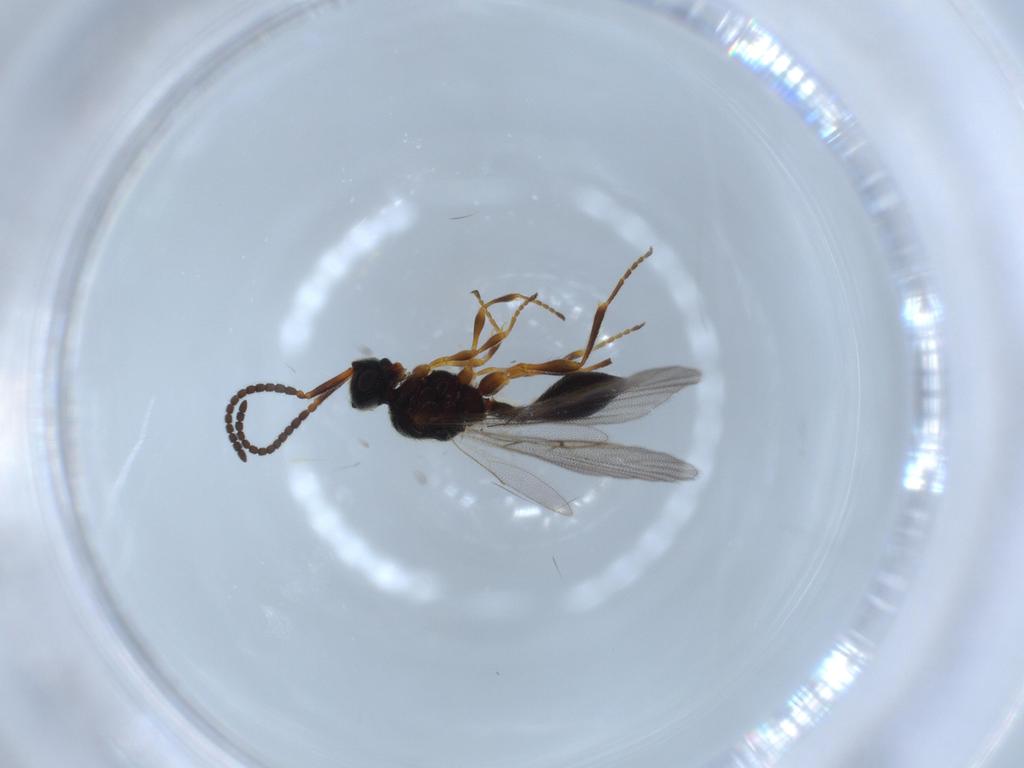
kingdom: Animalia
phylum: Arthropoda
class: Insecta
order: Hymenoptera
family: Diapriidae
